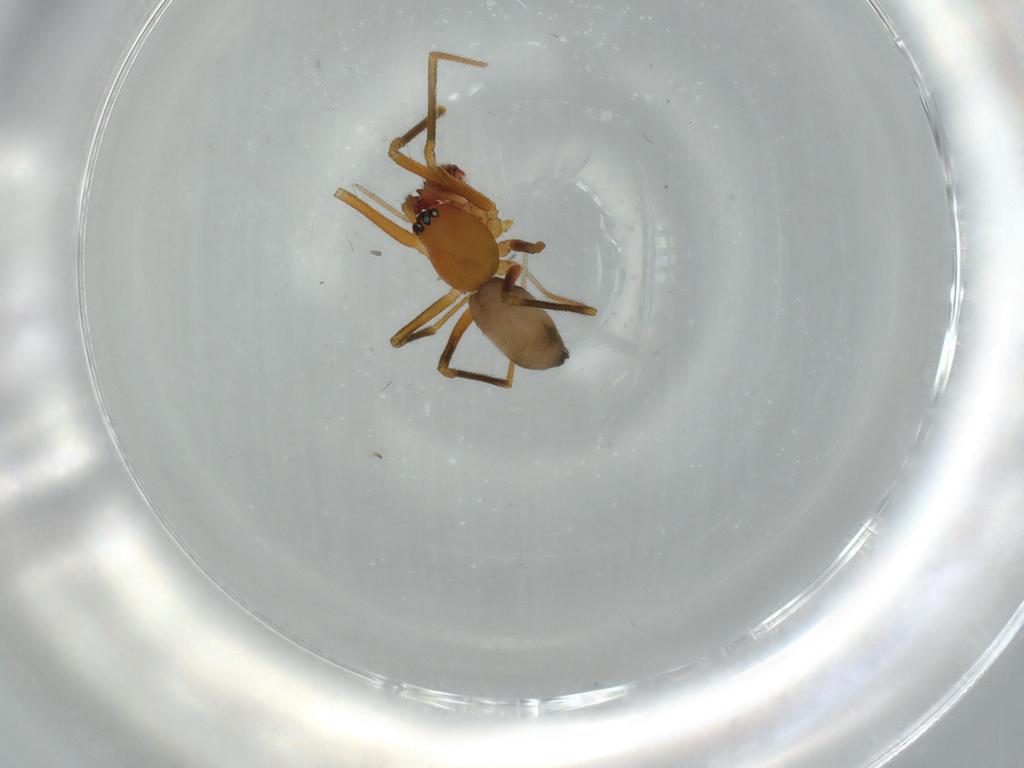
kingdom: Animalia
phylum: Arthropoda
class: Arachnida
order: Araneae
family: Linyphiidae
